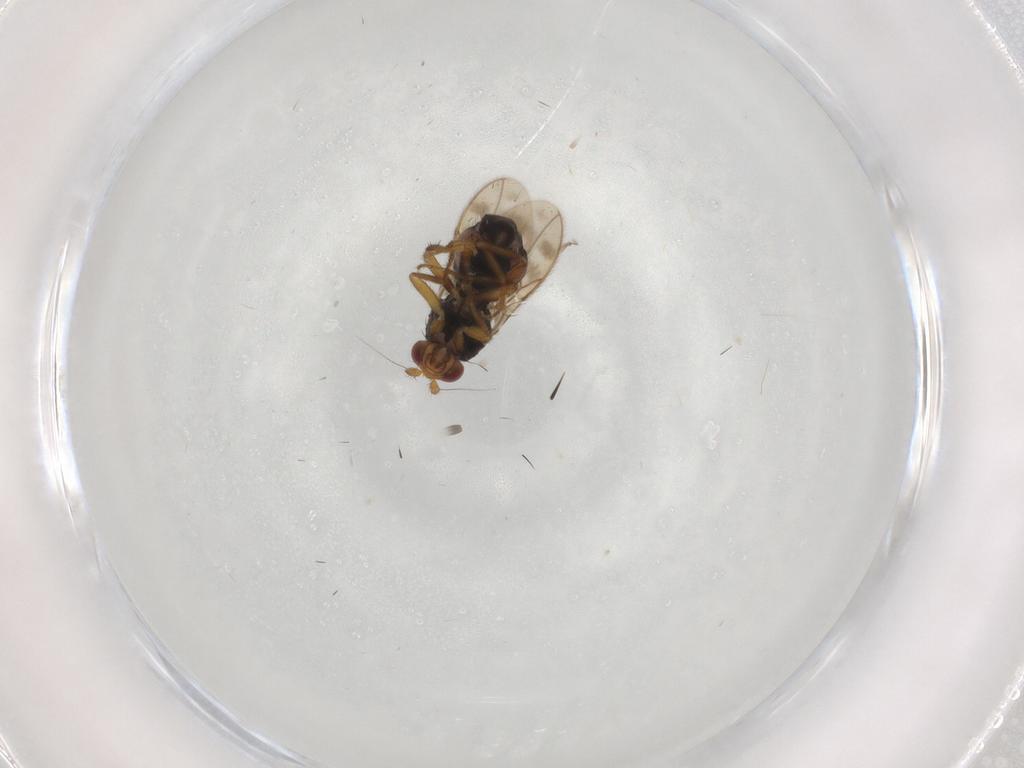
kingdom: Animalia
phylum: Arthropoda
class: Insecta
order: Diptera
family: Sphaeroceridae
